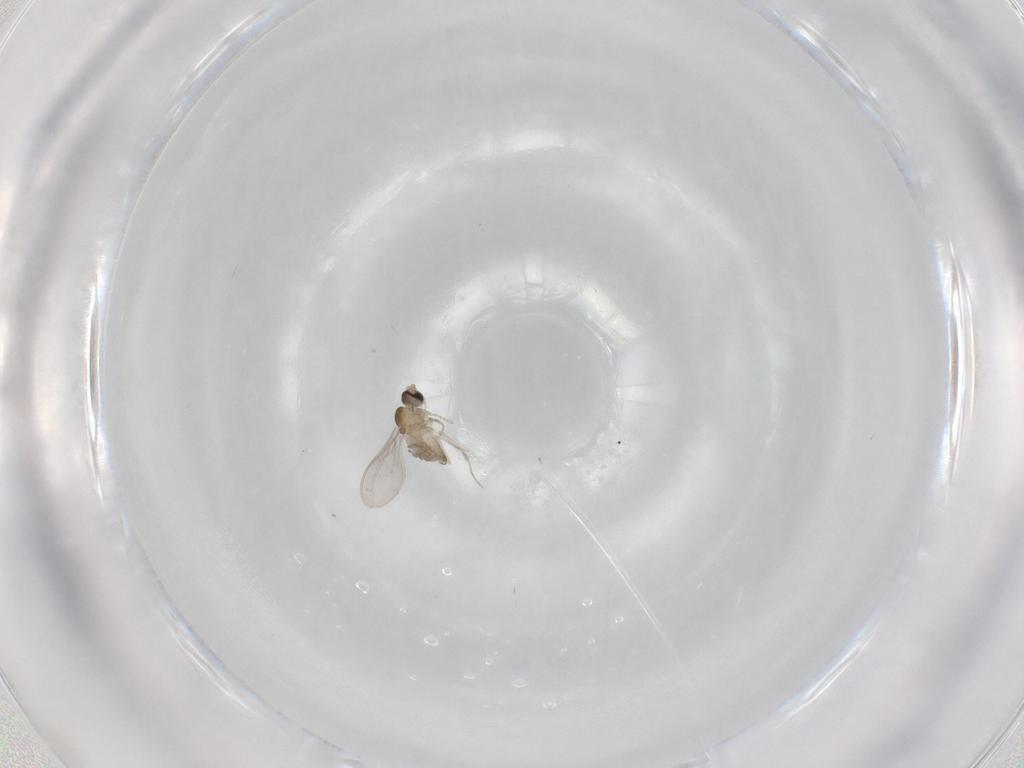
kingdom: Animalia
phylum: Arthropoda
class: Insecta
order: Diptera
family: Cecidomyiidae
